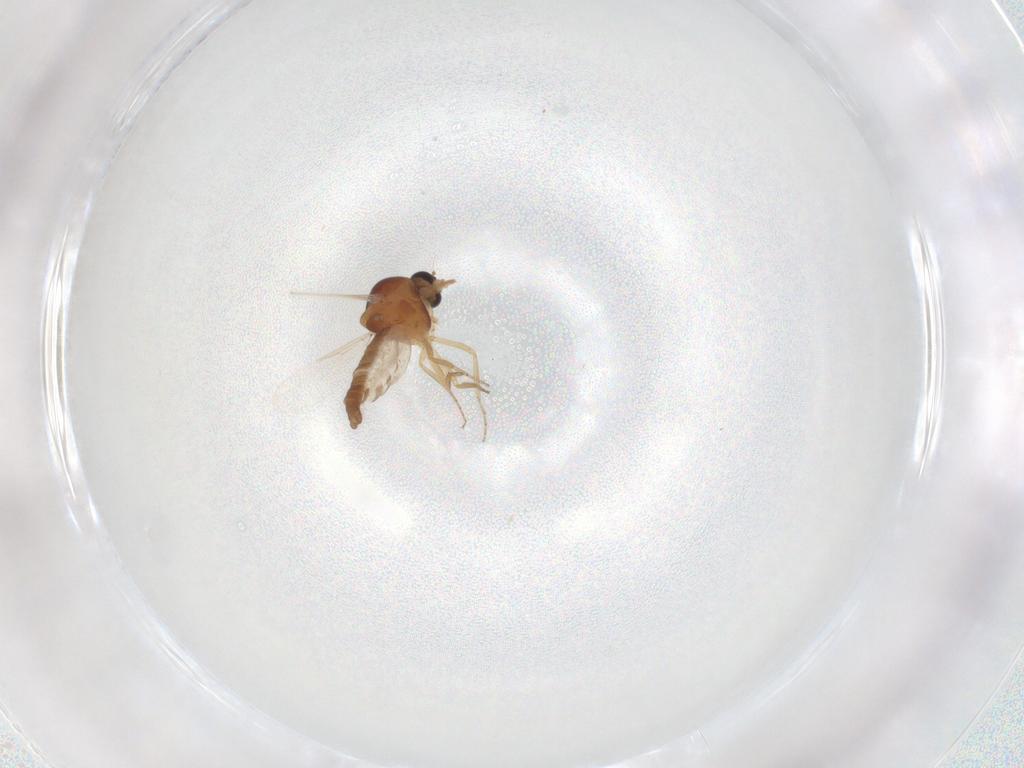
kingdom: Animalia
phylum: Arthropoda
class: Insecta
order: Diptera
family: Ceratopogonidae
